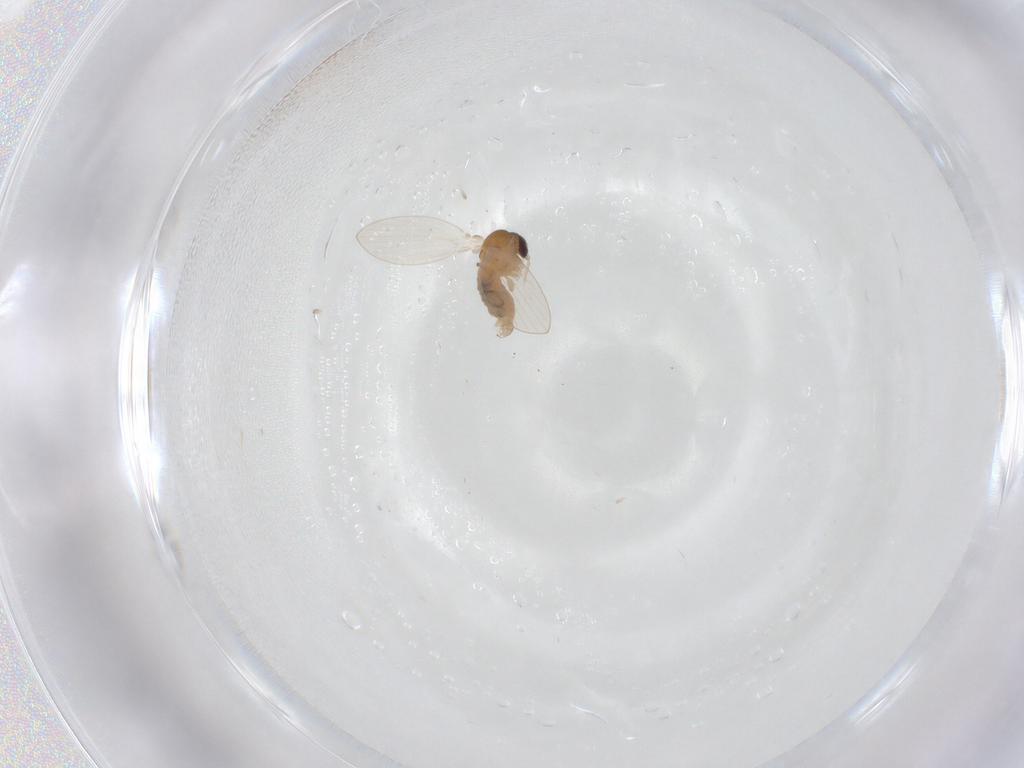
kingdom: Animalia
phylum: Arthropoda
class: Insecta
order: Diptera
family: Psychodidae
